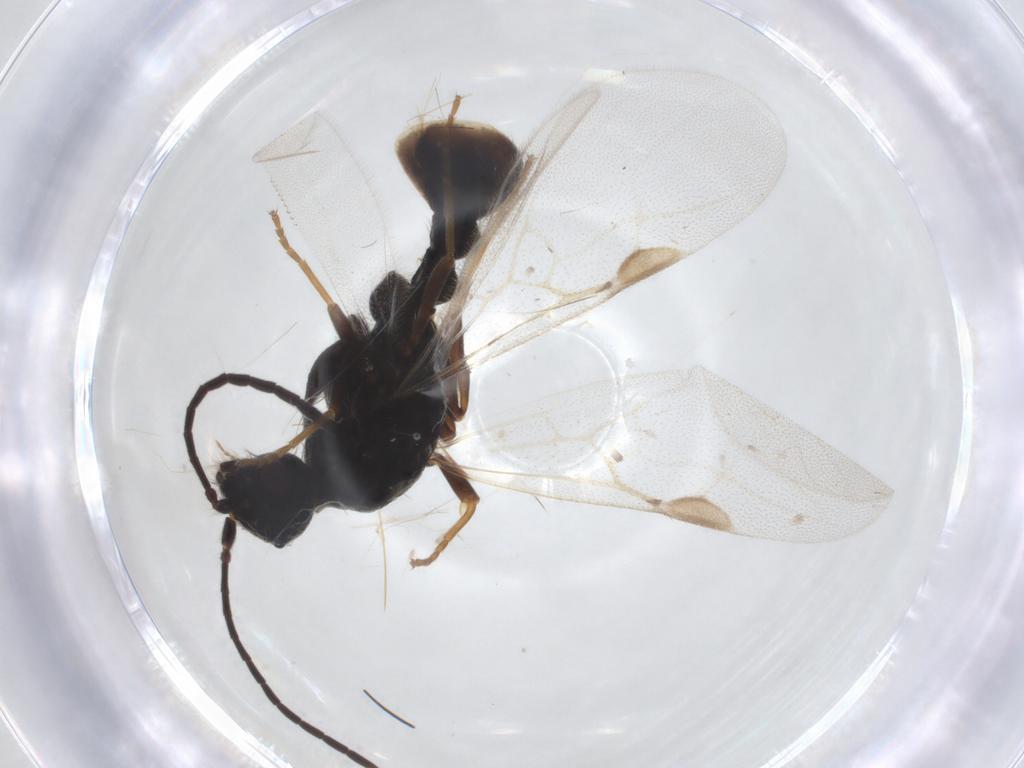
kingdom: Animalia
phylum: Arthropoda
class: Insecta
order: Hymenoptera
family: Formicidae
